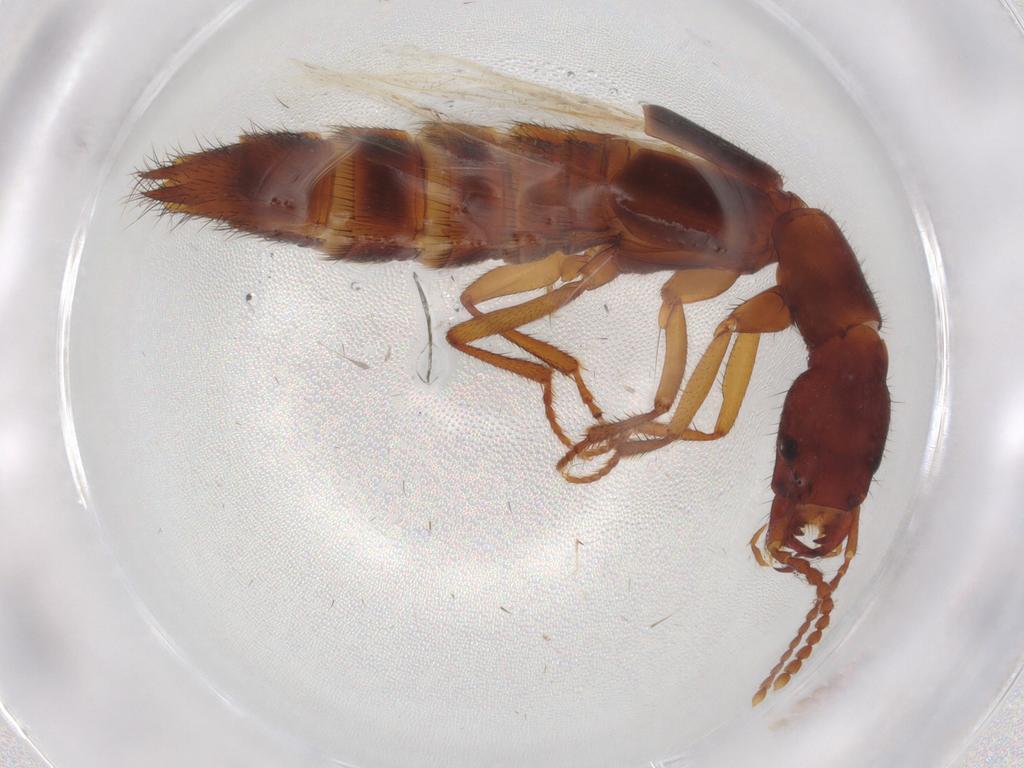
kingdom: Animalia
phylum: Arthropoda
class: Insecta
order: Coleoptera
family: Staphylinidae
